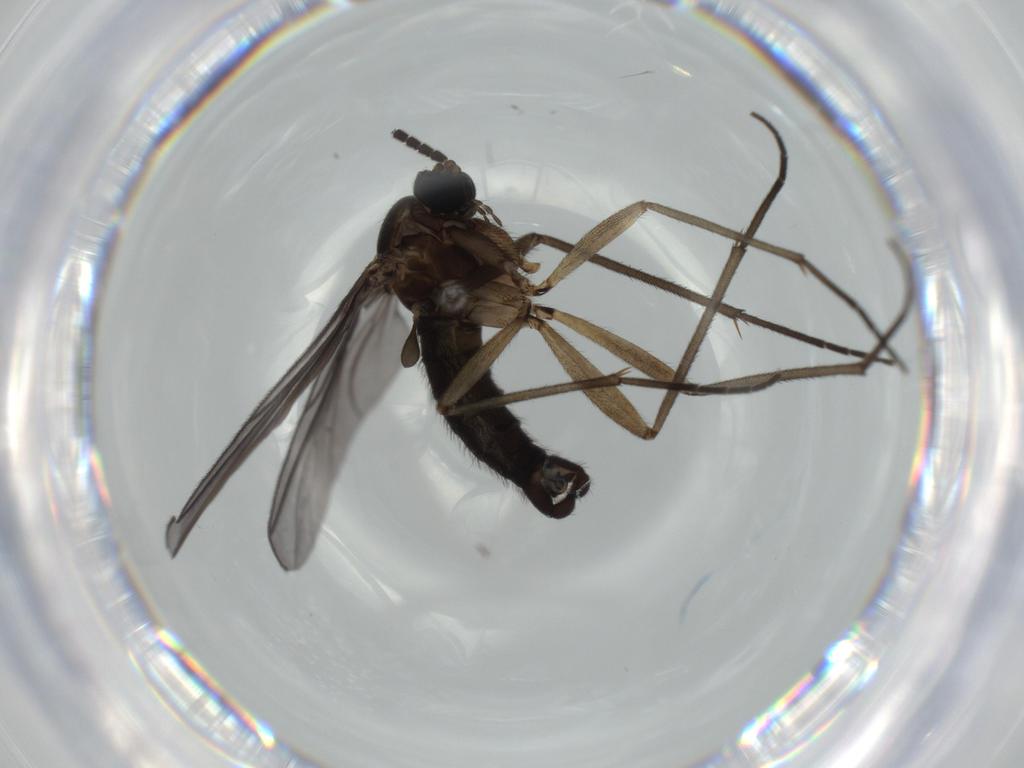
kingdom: Animalia
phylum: Arthropoda
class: Insecta
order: Diptera
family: Sciaridae
